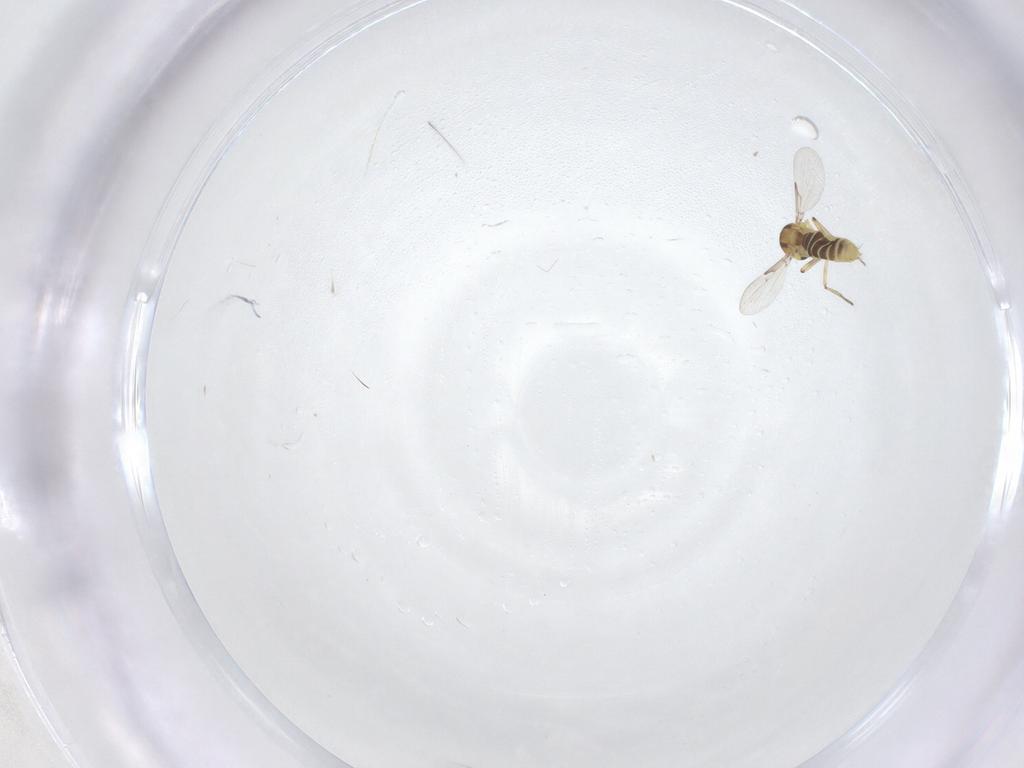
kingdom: Animalia
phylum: Arthropoda
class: Insecta
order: Diptera
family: Ceratopogonidae
